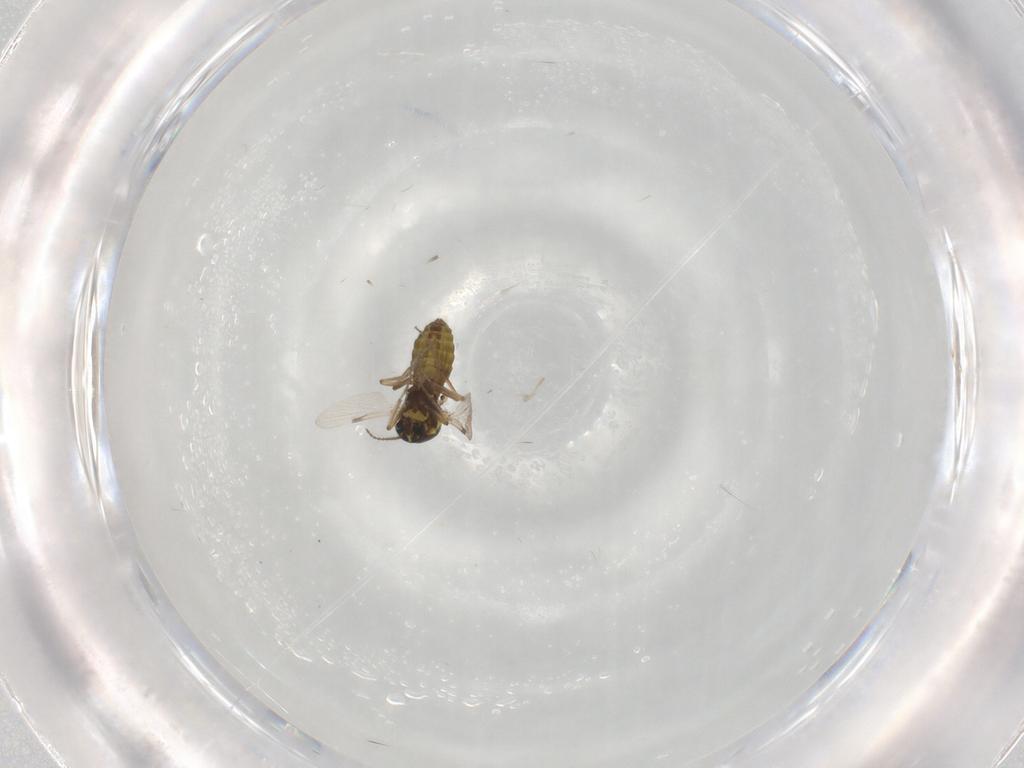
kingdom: Animalia
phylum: Arthropoda
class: Insecta
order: Diptera
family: Ceratopogonidae
